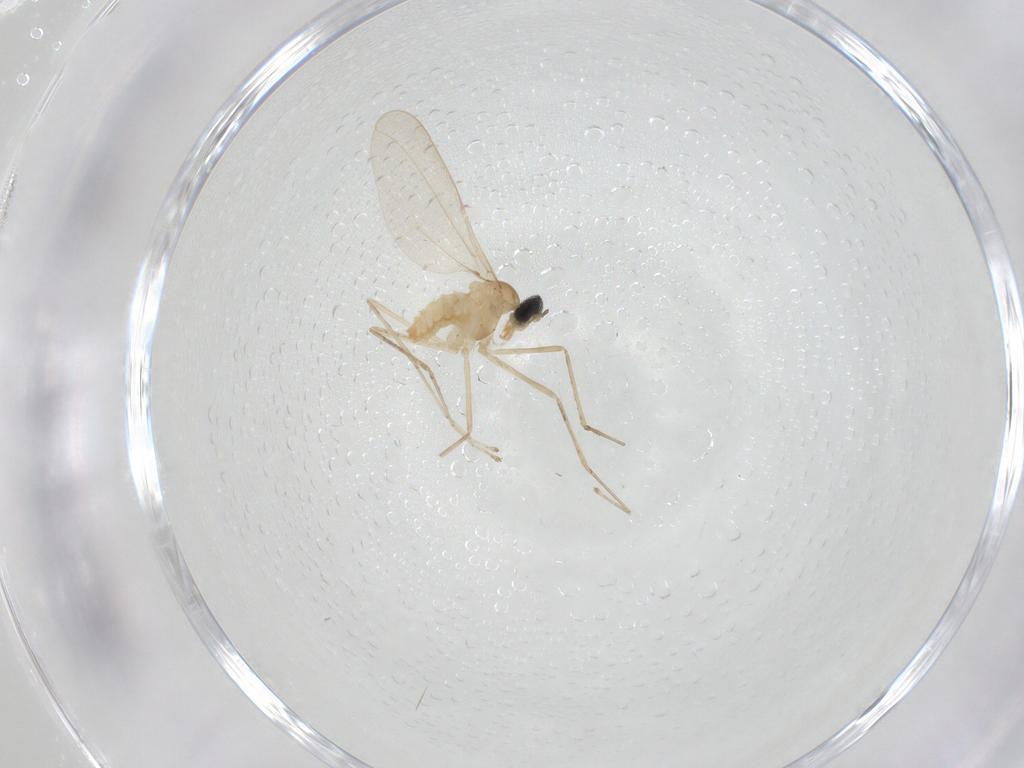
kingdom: Animalia
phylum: Arthropoda
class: Insecta
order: Diptera
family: Cecidomyiidae
